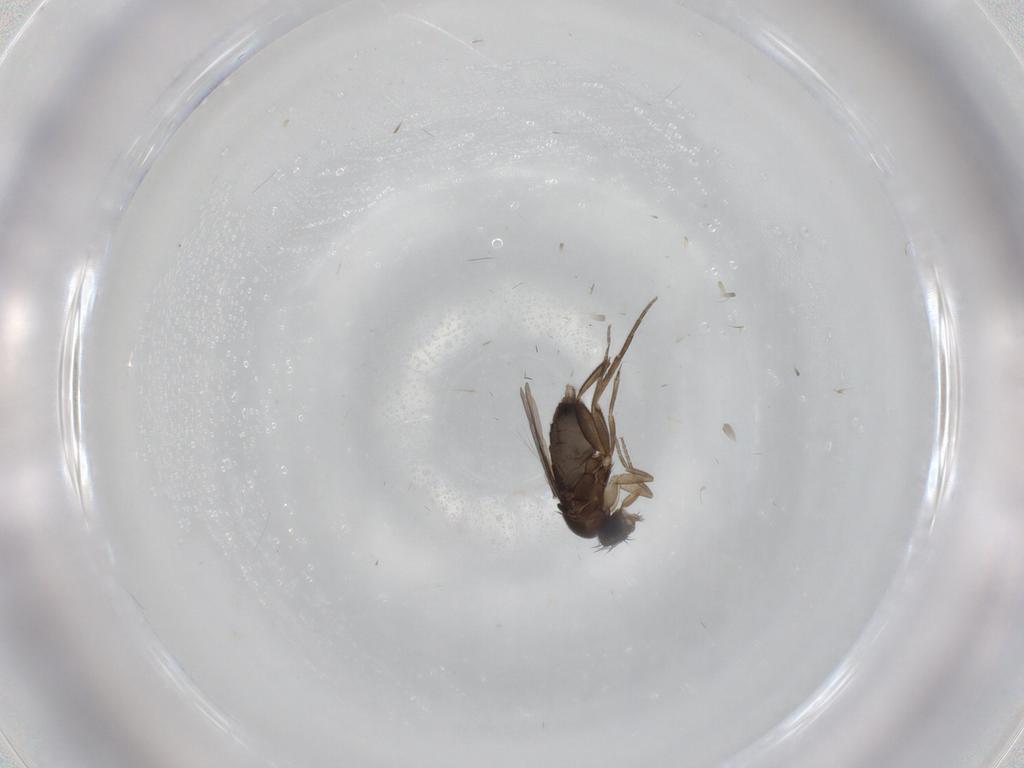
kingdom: Animalia
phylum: Arthropoda
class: Insecta
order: Diptera
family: Phoridae
